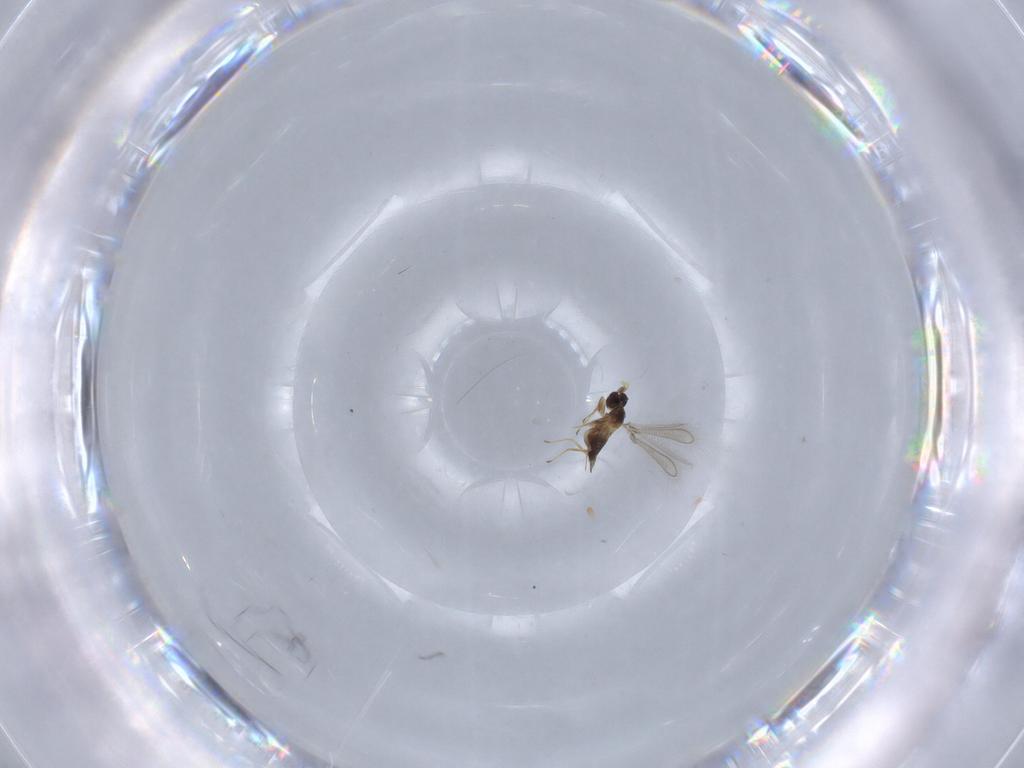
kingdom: Animalia
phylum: Arthropoda
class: Insecta
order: Hymenoptera
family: Mymaridae
